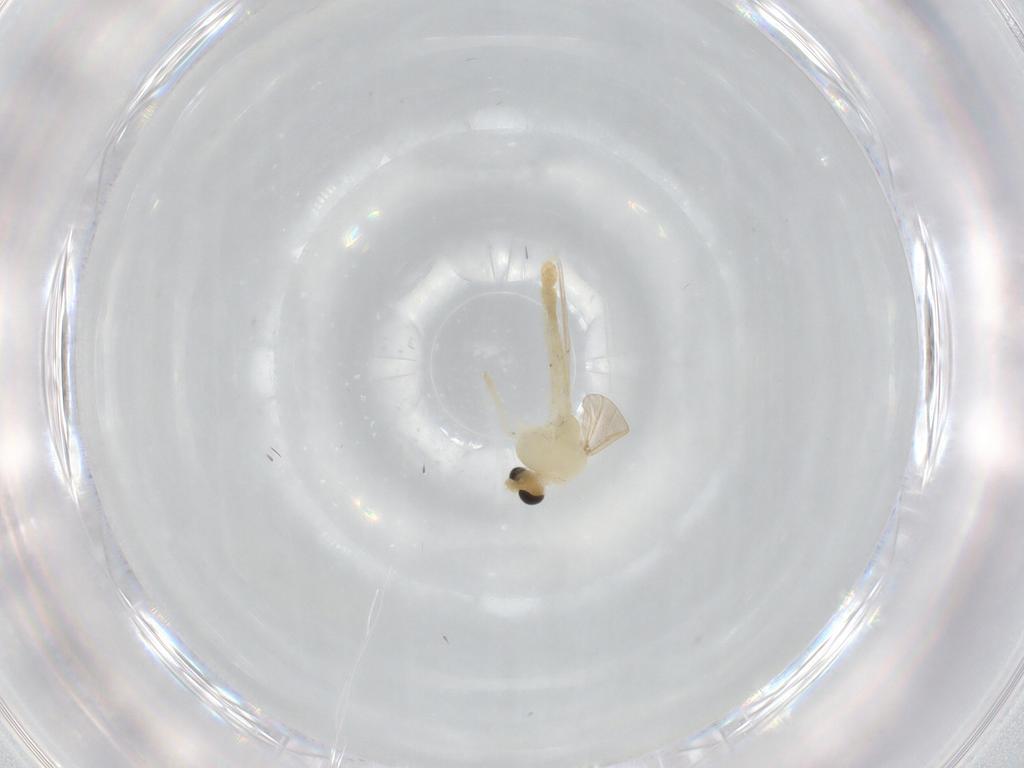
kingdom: Animalia
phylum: Arthropoda
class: Insecta
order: Diptera
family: Chironomidae
